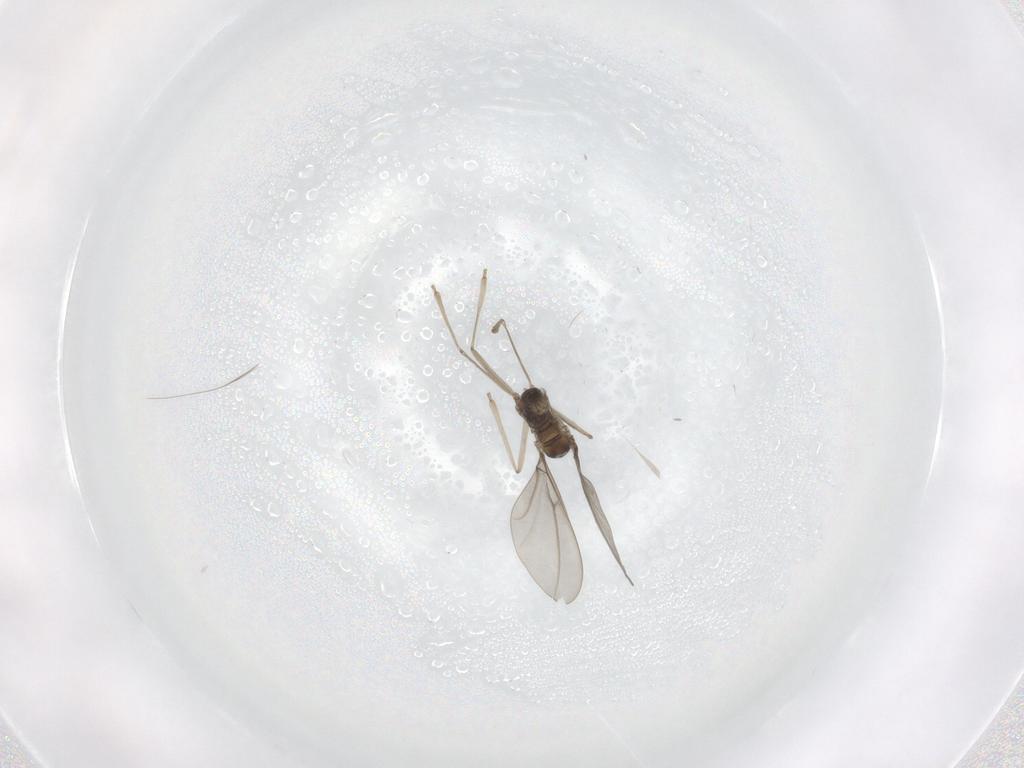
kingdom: Animalia
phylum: Arthropoda
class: Insecta
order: Diptera
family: Cecidomyiidae
